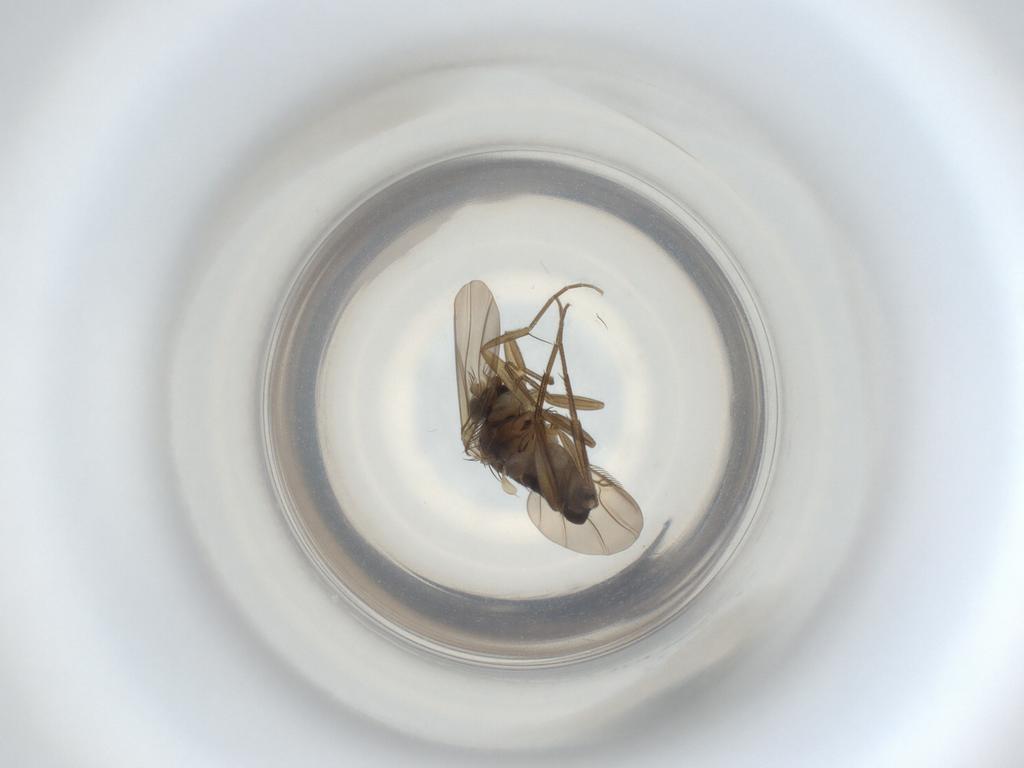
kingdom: Animalia
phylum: Arthropoda
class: Insecta
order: Diptera
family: Phoridae
